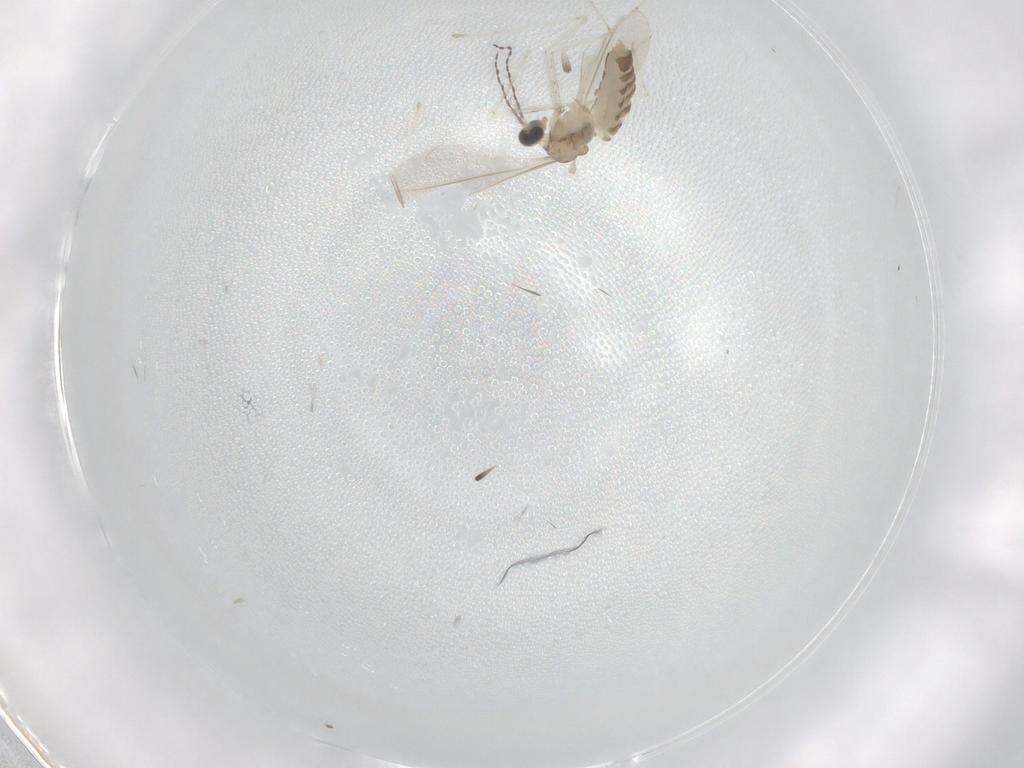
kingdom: Animalia
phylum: Arthropoda
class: Insecta
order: Diptera
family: Cecidomyiidae
